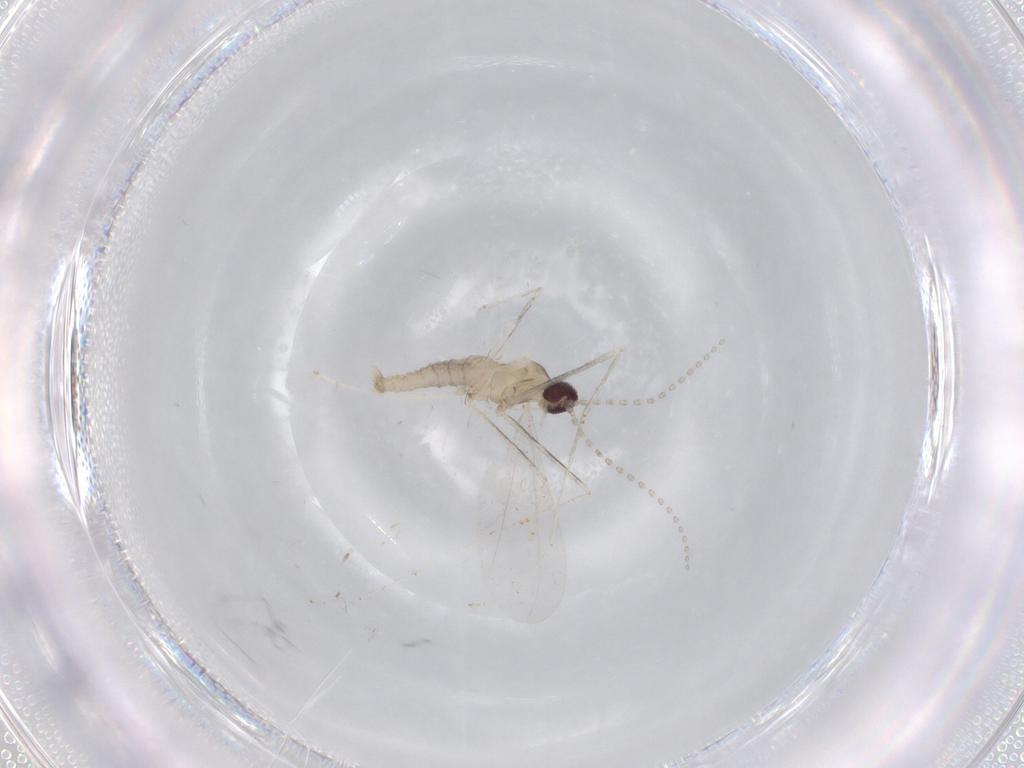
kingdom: Animalia
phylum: Arthropoda
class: Insecta
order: Diptera
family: Cecidomyiidae
